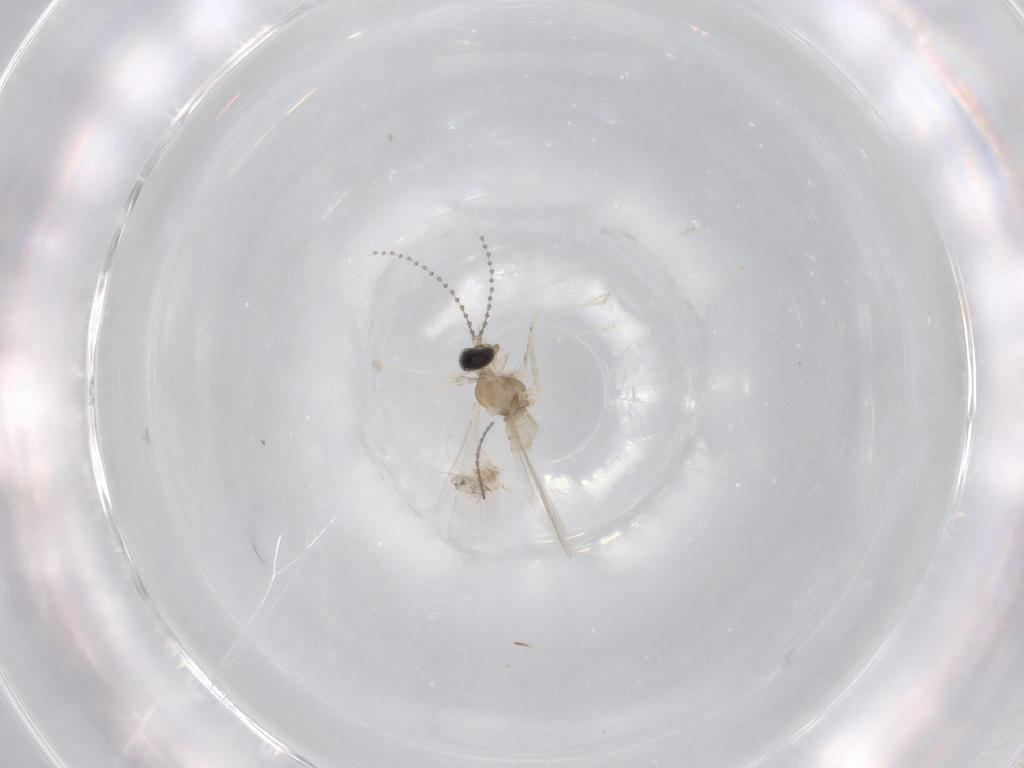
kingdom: Animalia
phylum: Arthropoda
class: Insecta
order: Diptera
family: Cecidomyiidae
